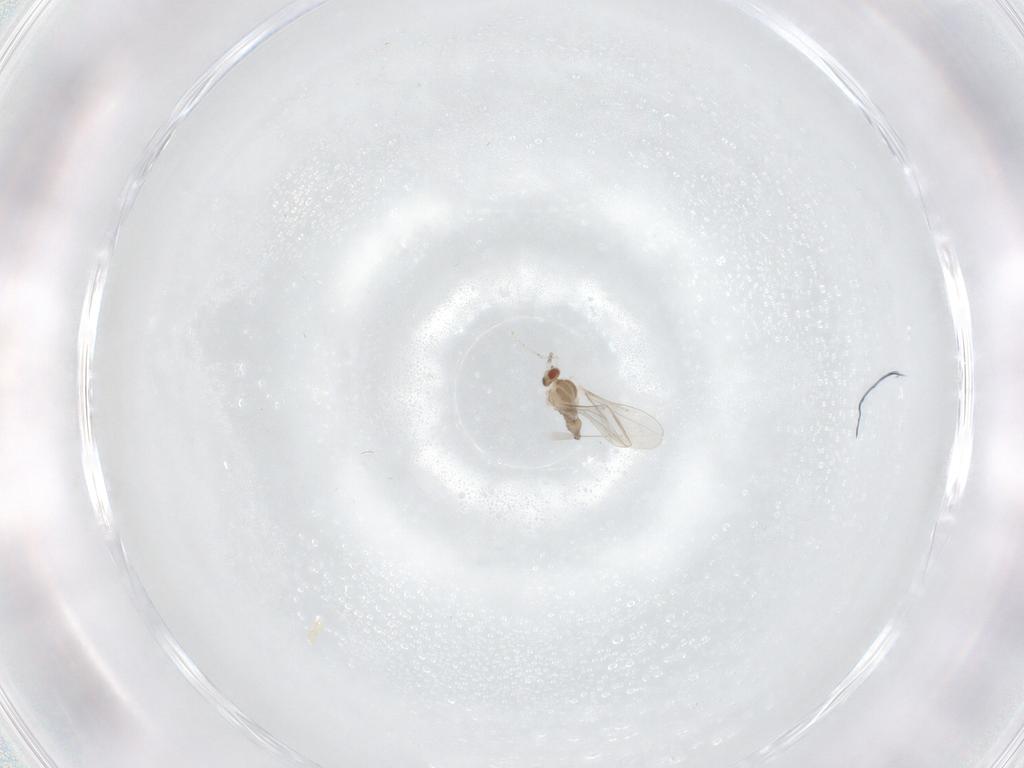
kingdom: Animalia
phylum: Arthropoda
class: Insecta
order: Diptera
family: Cecidomyiidae
